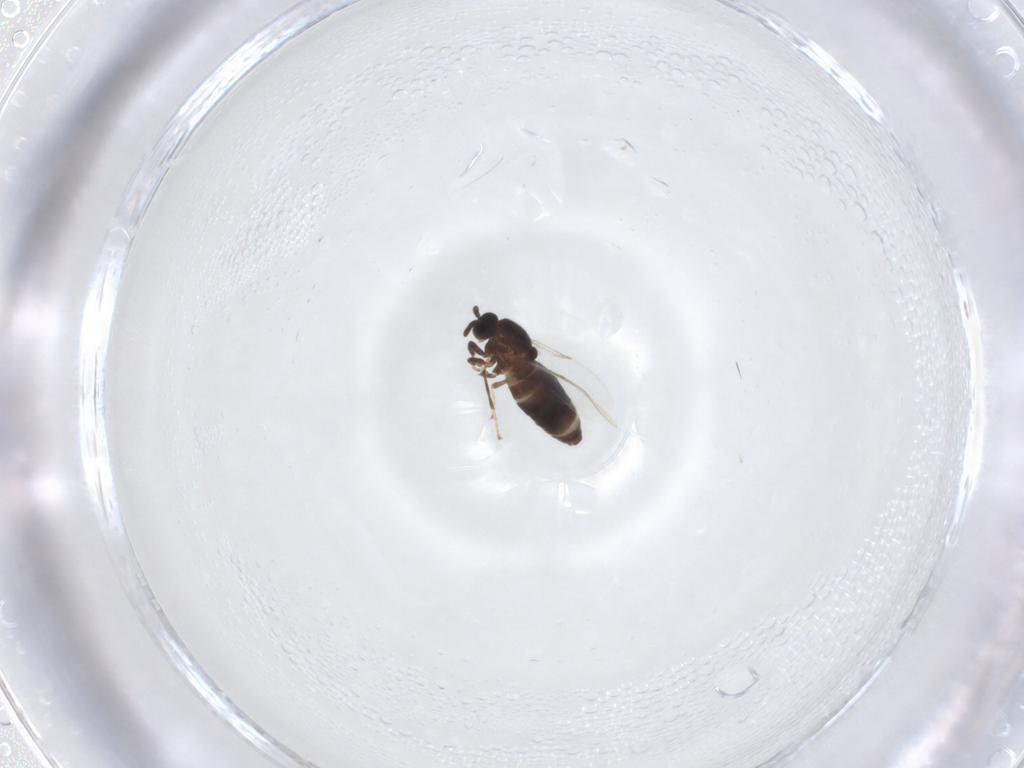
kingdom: Animalia
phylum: Arthropoda
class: Insecta
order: Diptera
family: Scatopsidae
